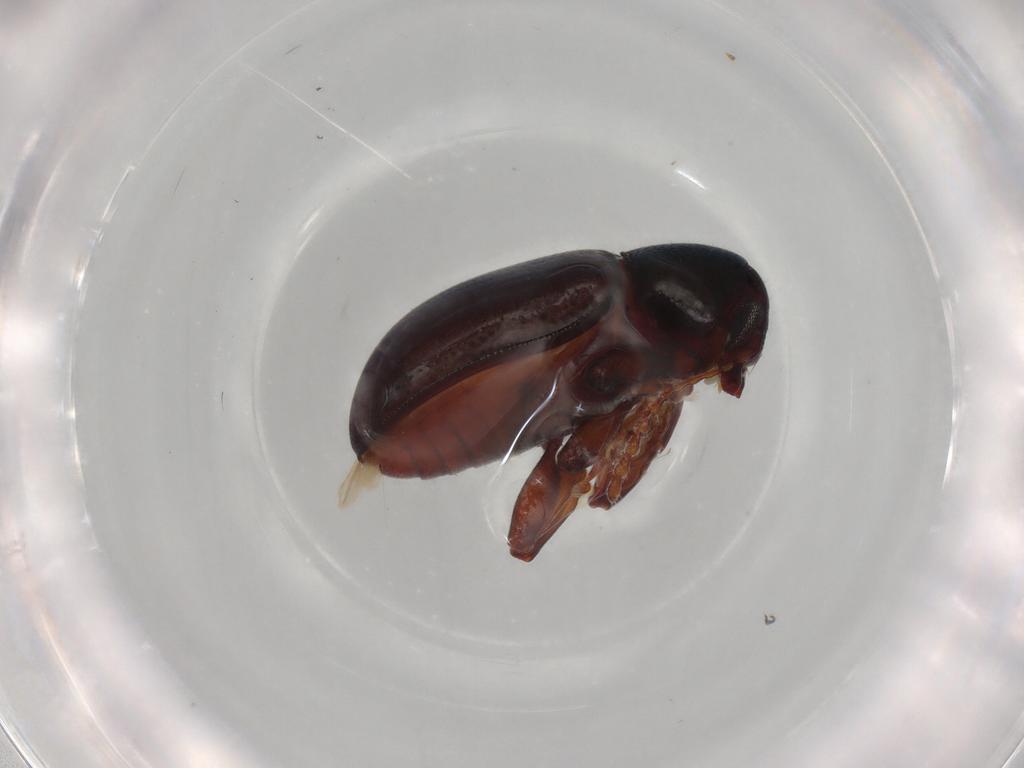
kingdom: Animalia
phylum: Arthropoda
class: Insecta
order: Coleoptera
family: Chrysomelidae
